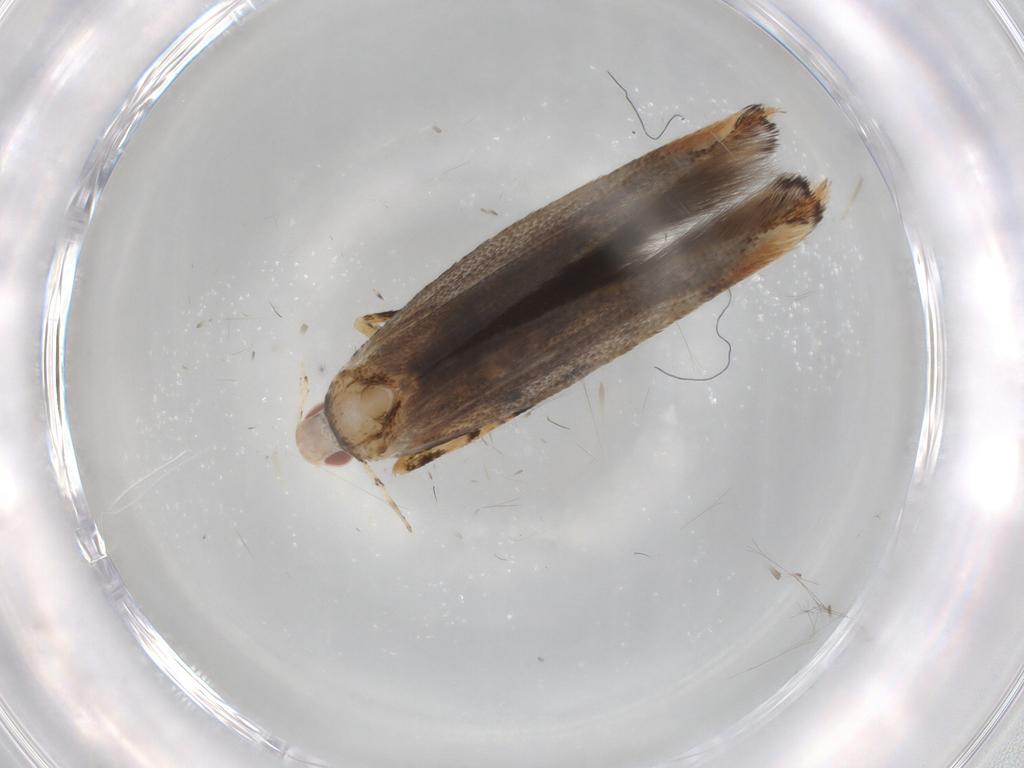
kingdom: Animalia
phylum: Arthropoda
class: Insecta
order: Lepidoptera
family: Cosmopterigidae
